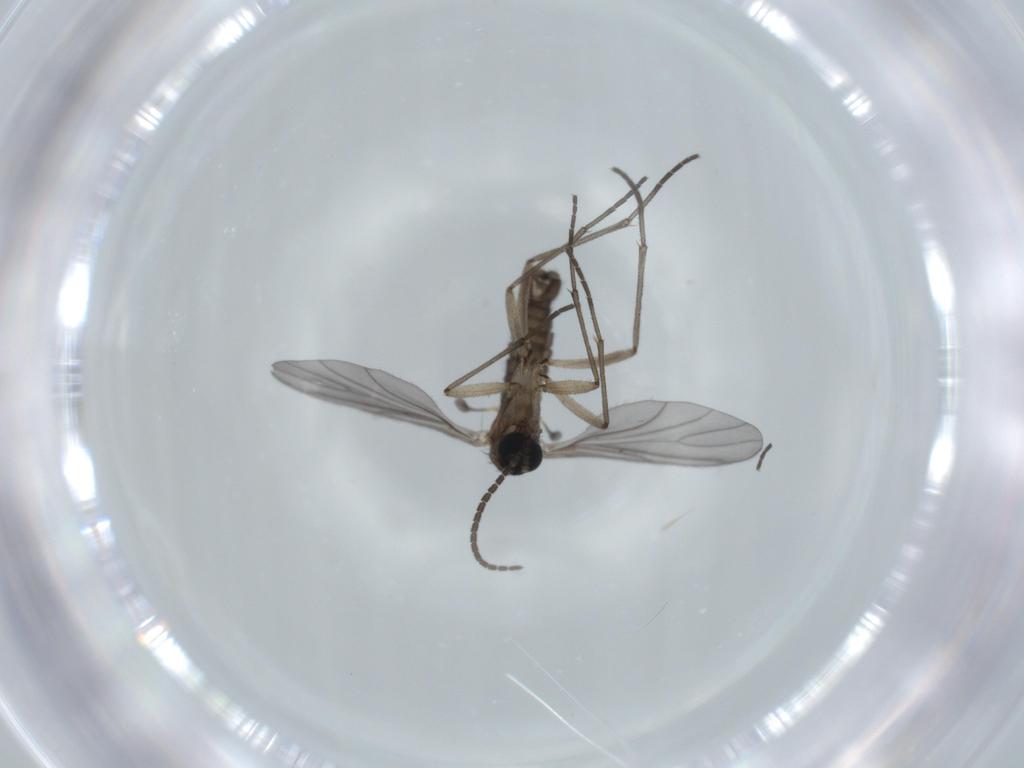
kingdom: Animalia
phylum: Arthropoda
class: Insecta
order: Diptera
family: Sciaridae
